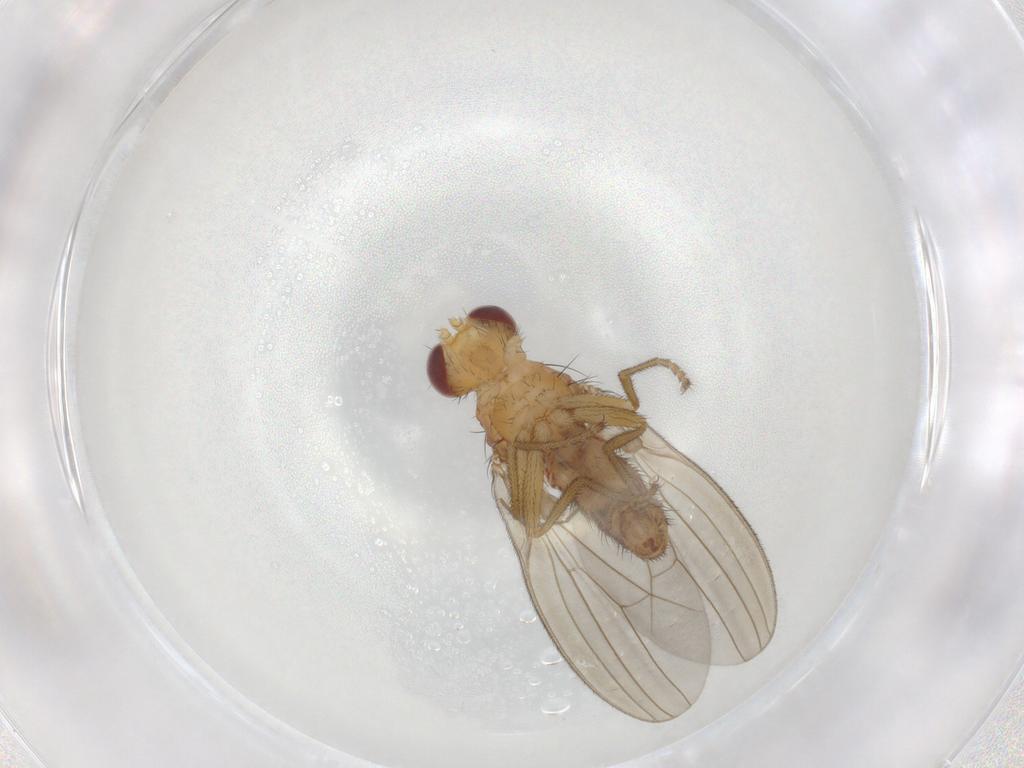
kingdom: Animalia
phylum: Arthropoda
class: Insecta
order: Diptera
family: Natalimyzidae
